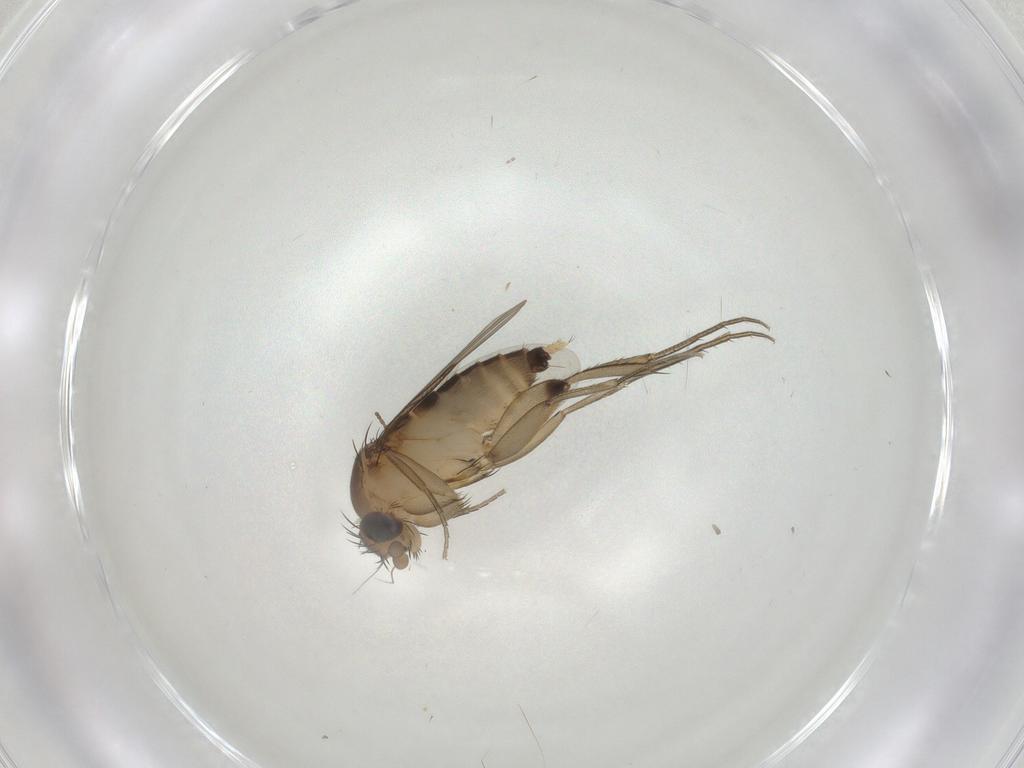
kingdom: Animalia
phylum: Arthropoda
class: Insecta
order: Diptera
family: Cecidomyiidae
